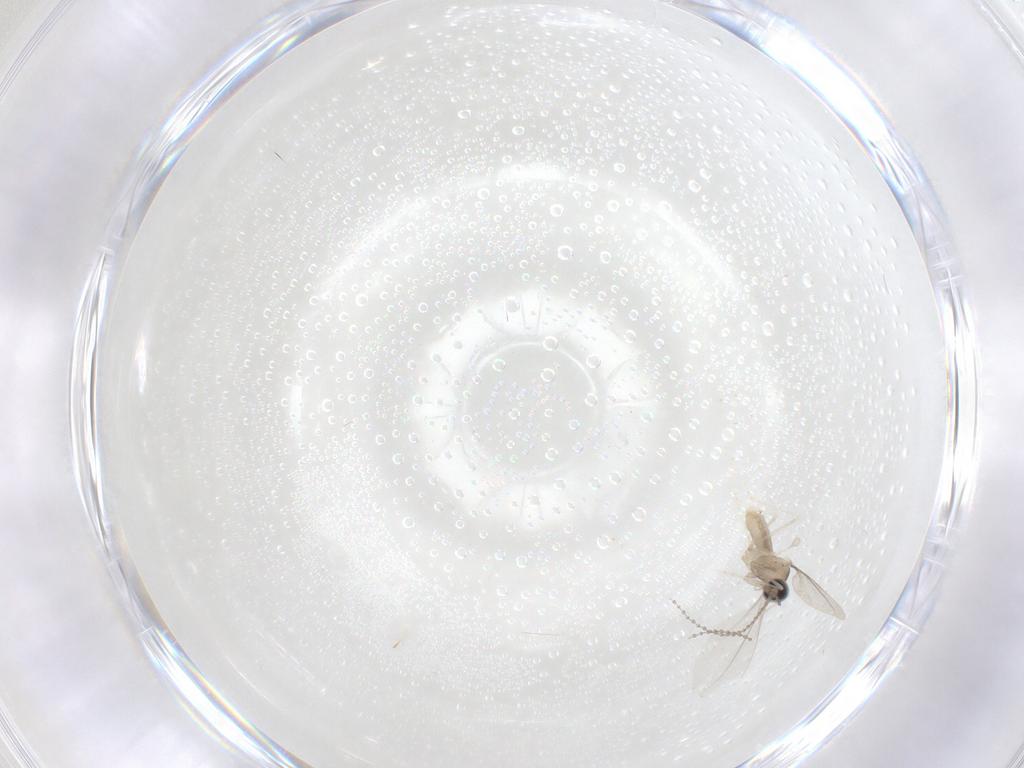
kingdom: Animalia
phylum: Arthropoda
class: Insecta
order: Diptera
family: Cecidomyiidae
